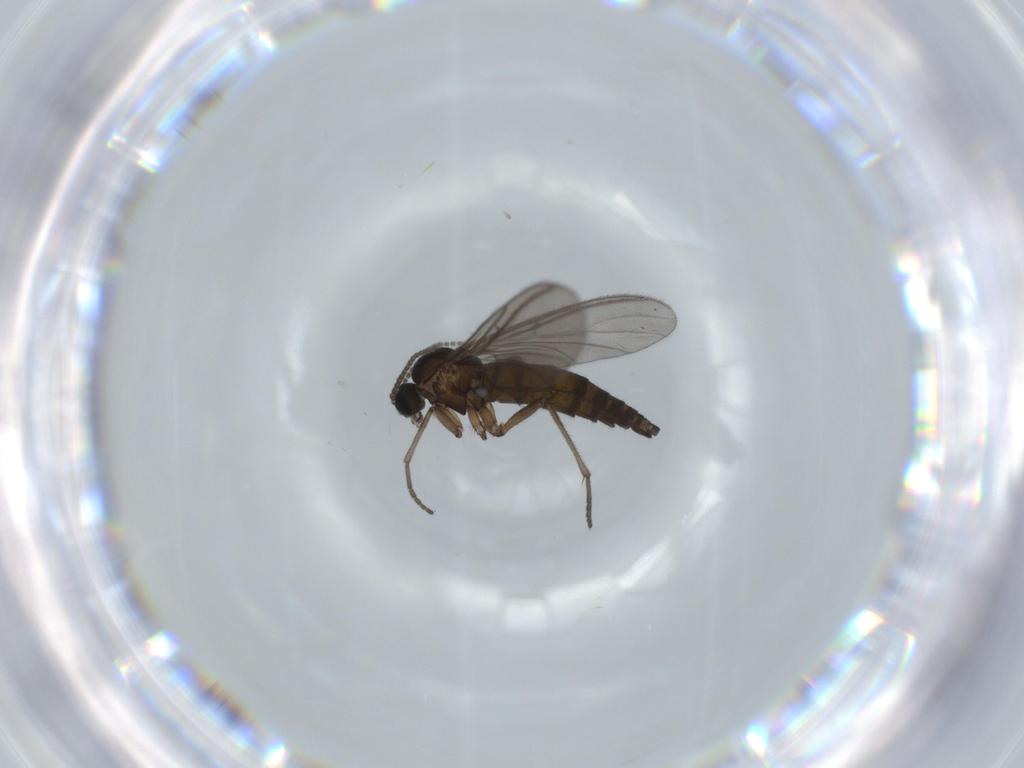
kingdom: Animalia
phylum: Arthropoda
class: Insecta
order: Diptera
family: Sciaridae
